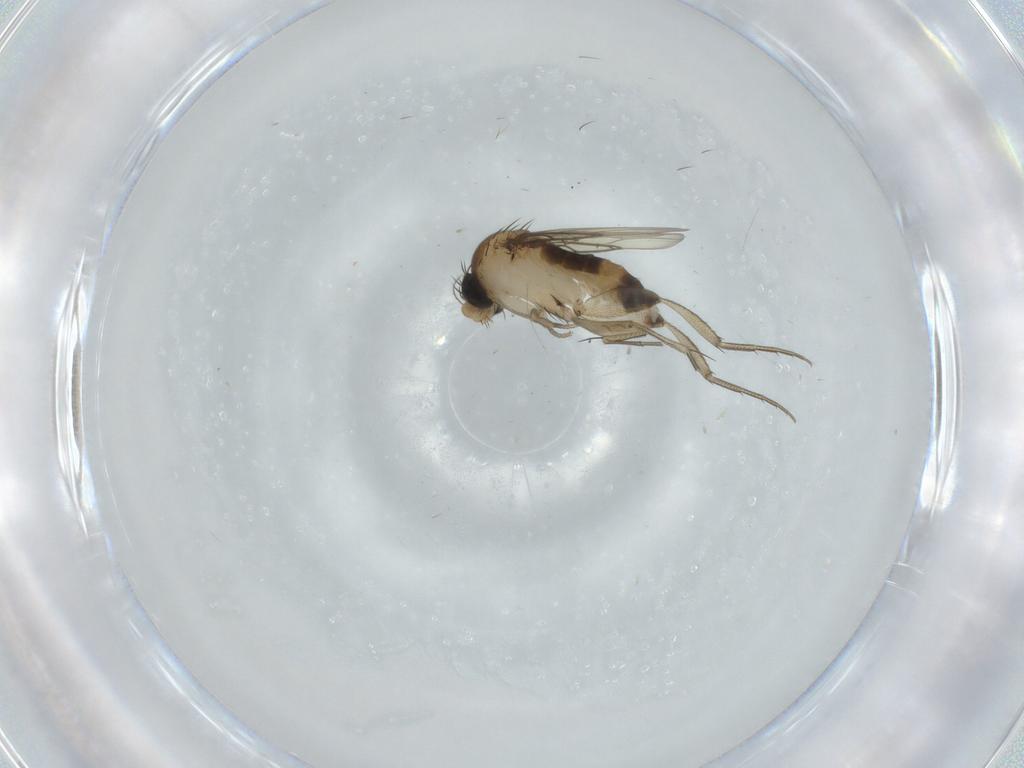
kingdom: Animalia
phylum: Arthropoda
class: Insecta
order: Diptera
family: Phoridae
